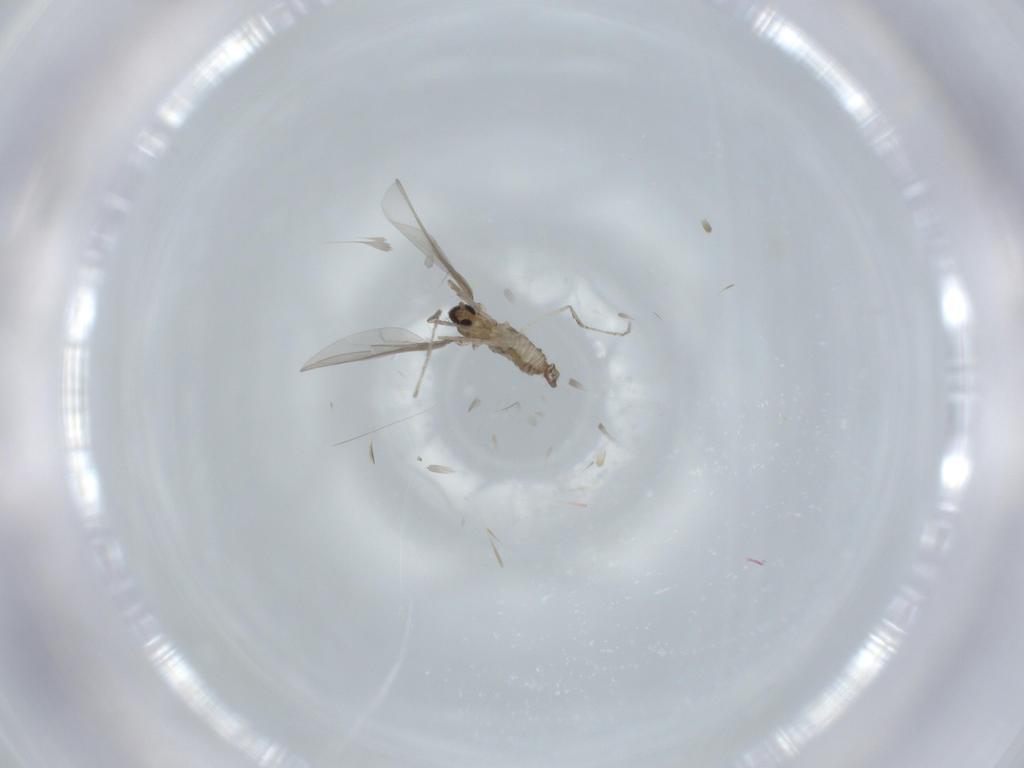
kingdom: Animalia
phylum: Arthropoda
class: Insecta
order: Diptera
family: Cecidomyiidae
